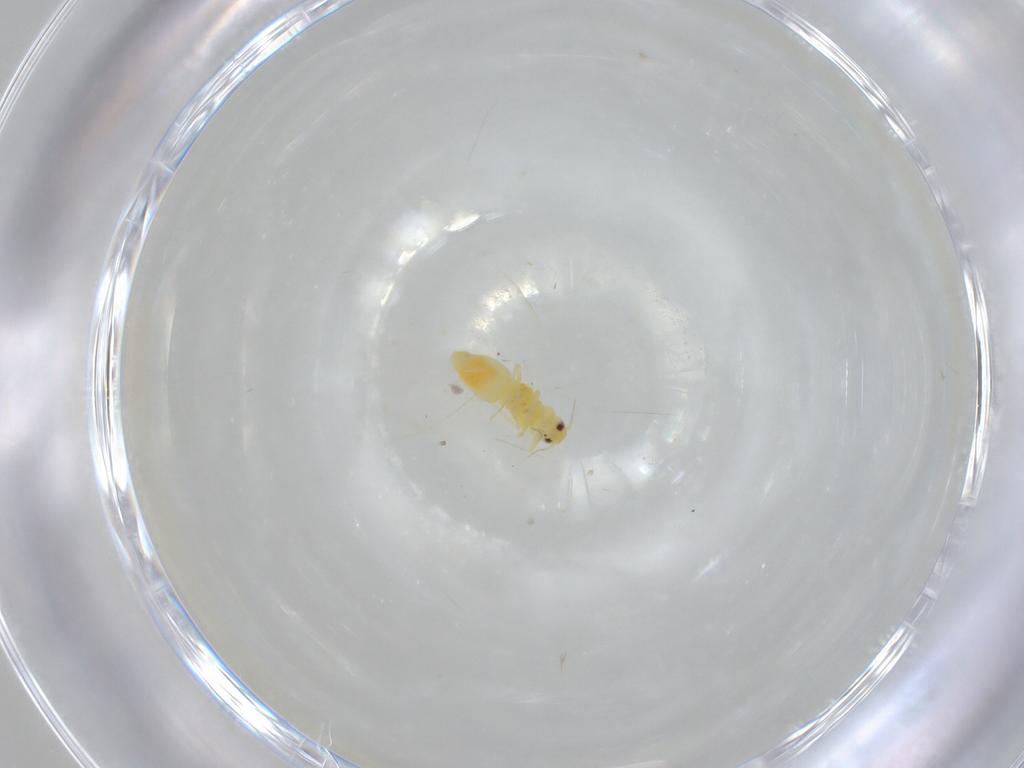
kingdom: Animalia
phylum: Arthropoda
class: Insecta
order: Hemiptera
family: Aleyrodidae
